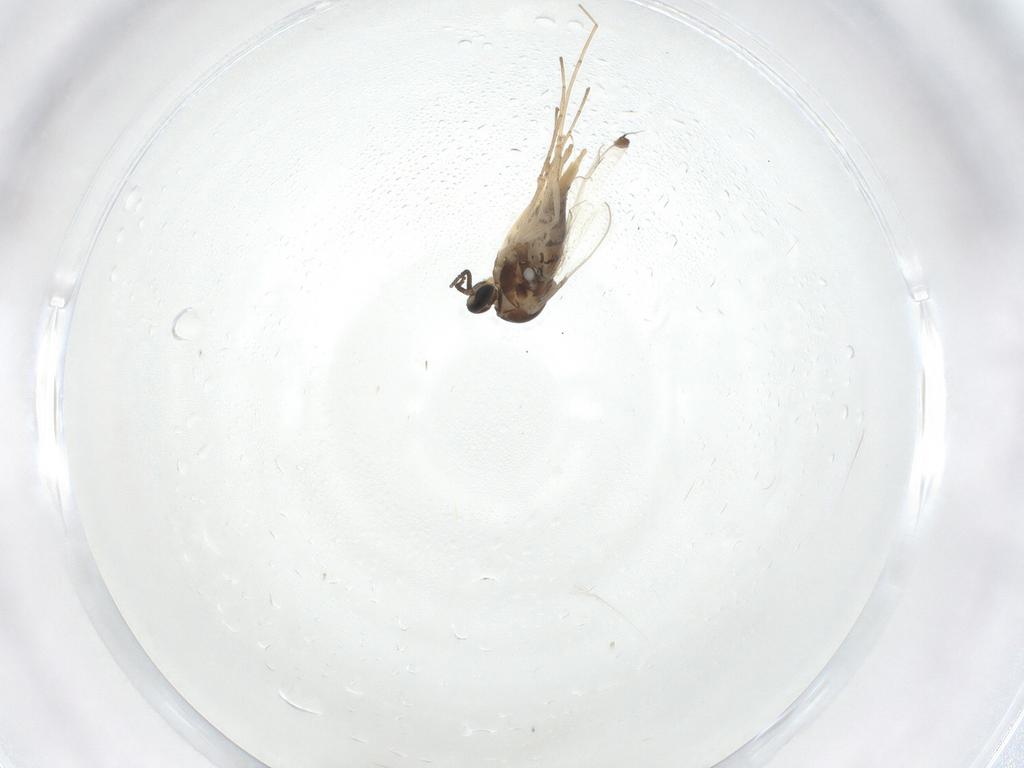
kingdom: Animalia
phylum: Arthropoda
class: Insecta
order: Diptera
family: Cecidomyiidae
